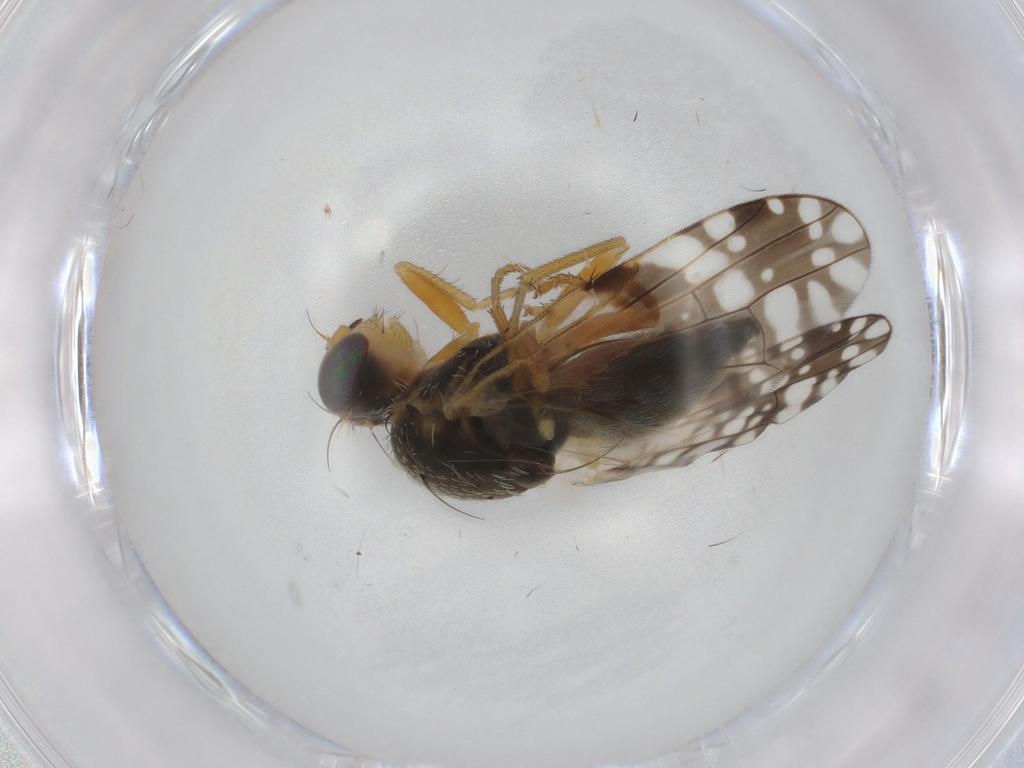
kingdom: Animalia
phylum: Arthropoda
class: Insecta
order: Diptera
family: Tephritidae
